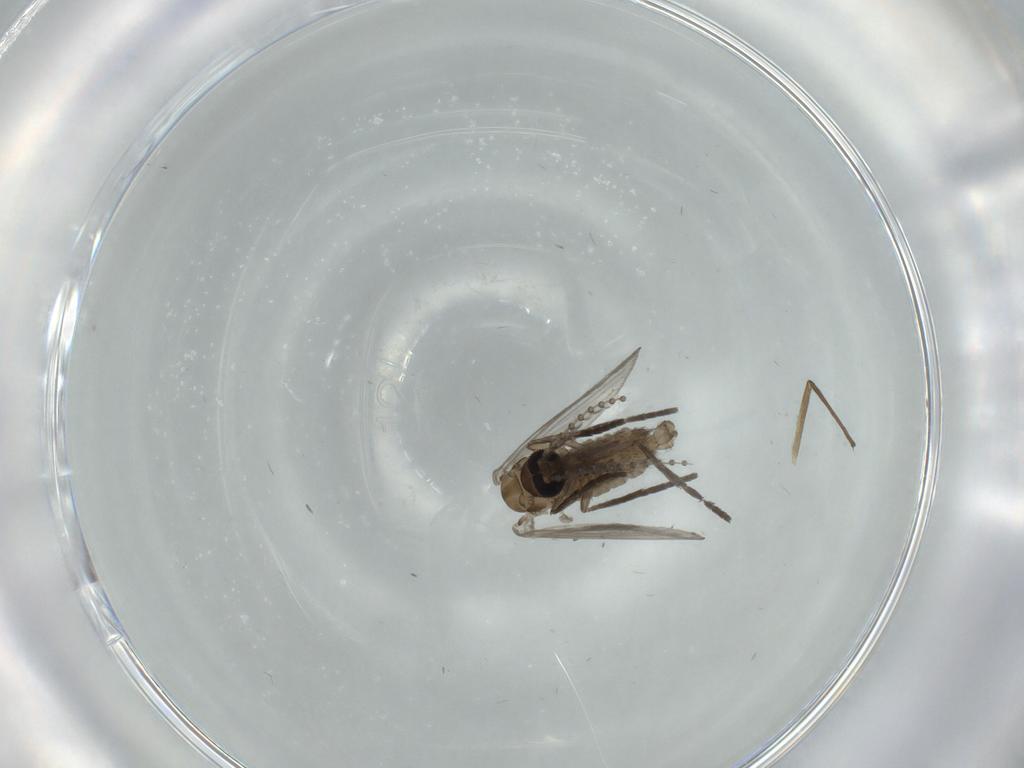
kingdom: Animalia
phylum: Arthropoda
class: Insecta
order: Diptera
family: Psychodidae
